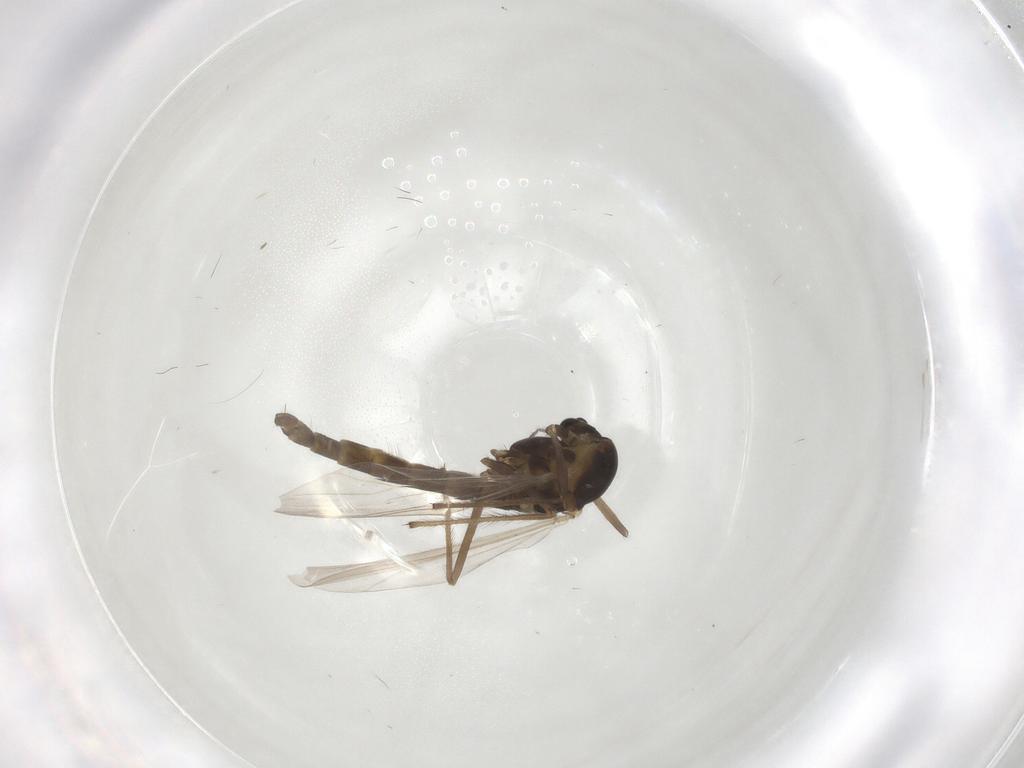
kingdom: Animalia
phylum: Arthropoda
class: Insecta
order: Diptera
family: Chironomidae
